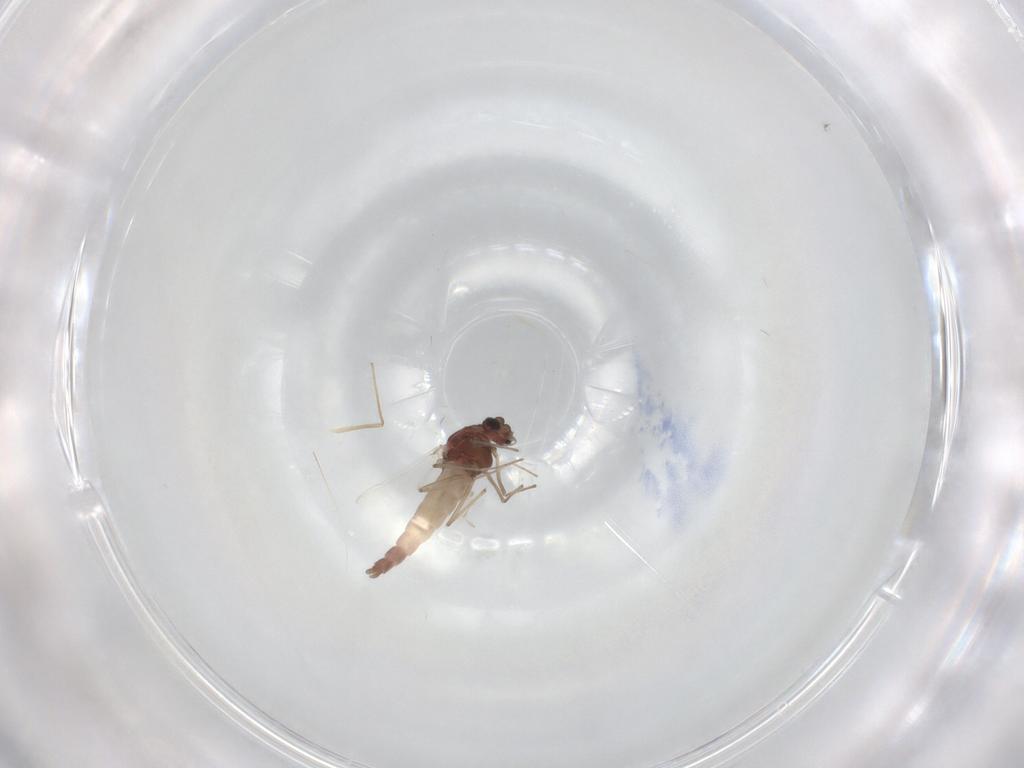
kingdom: Animalia
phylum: Arthropoda
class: Insecta
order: Diptera
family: Chironomidae
